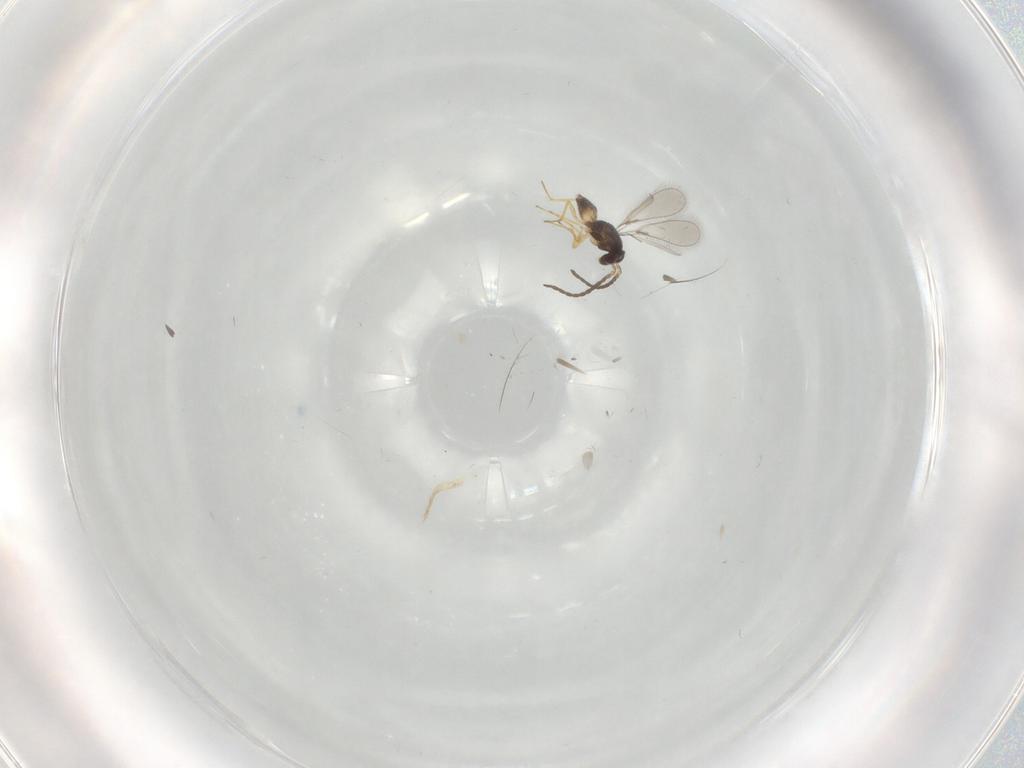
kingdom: Animalia
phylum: Arthropoda
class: Insecta
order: Hymenoptera
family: Mymaridae
